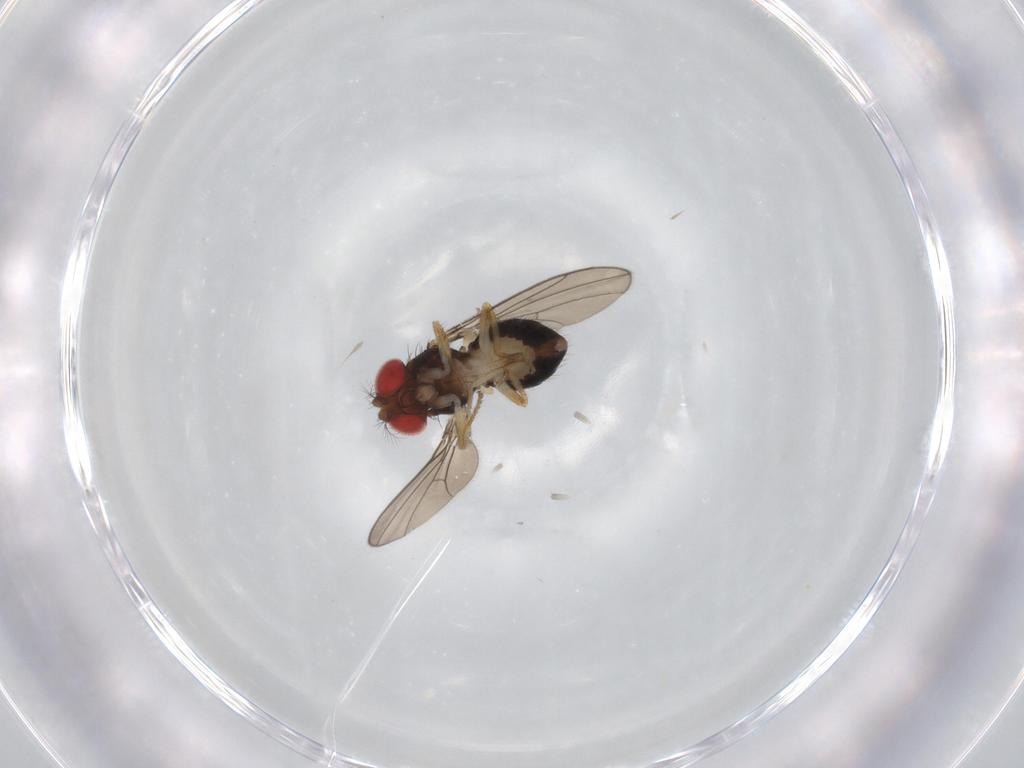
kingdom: Animalia
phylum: Arthropoda
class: Insecta
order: Diptera
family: Drosophilidae
